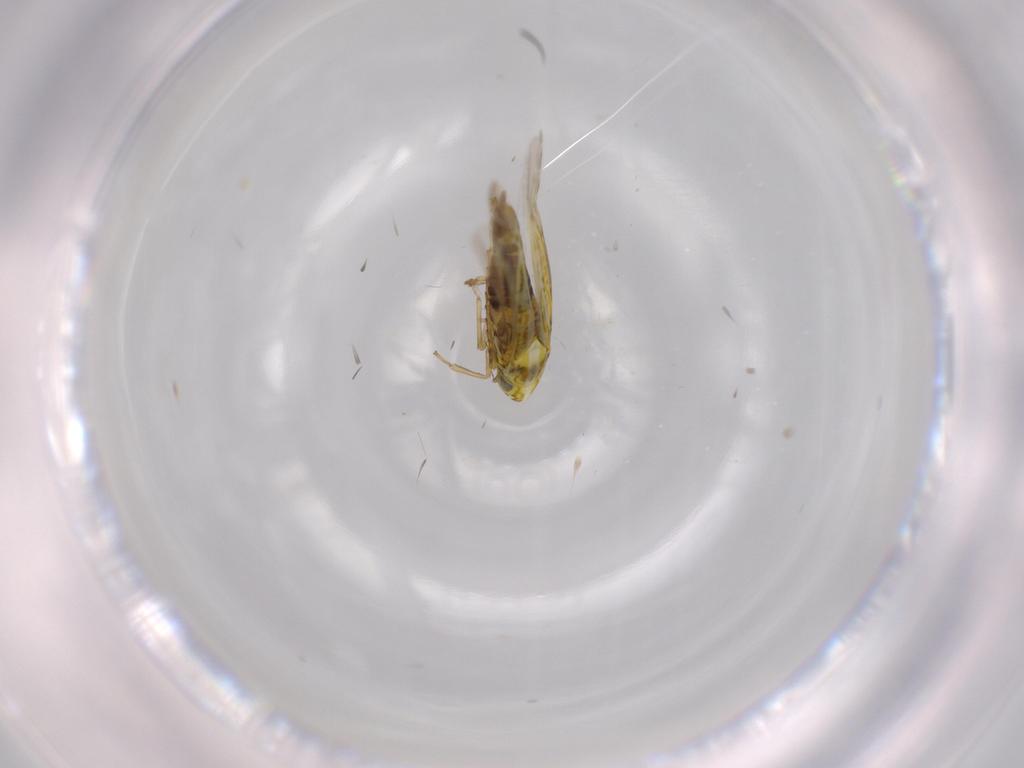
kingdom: Animalia
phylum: Arthropoda
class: Insecta
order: Hemiptera
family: Cicadellidae
